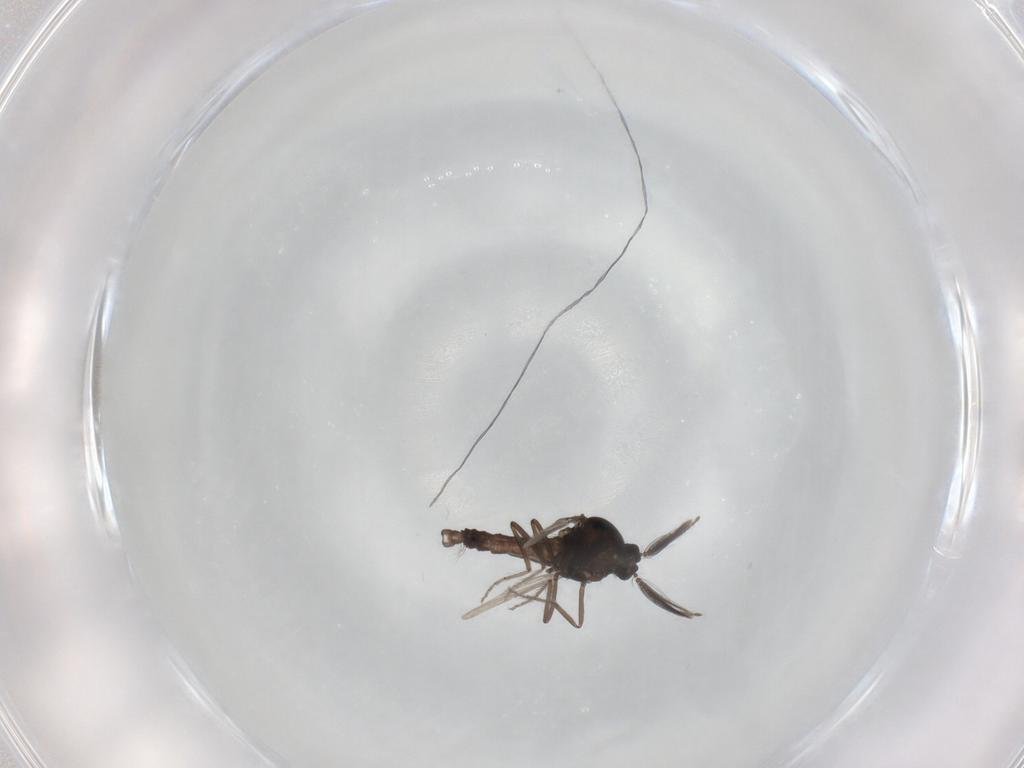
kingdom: Animalia
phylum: Arthropoda
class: Insecta
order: Diptera
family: Ceratopogonidae
